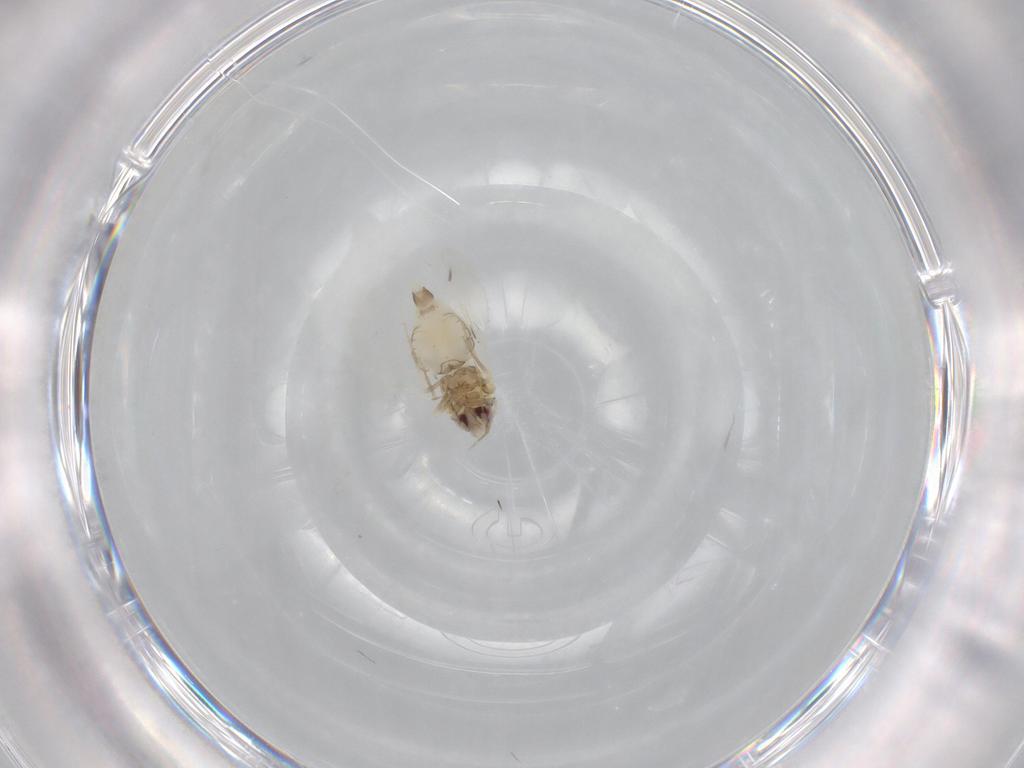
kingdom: Animalia
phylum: Arthropoda
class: Insecta
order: Hemiptera
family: Aleyrodidae
